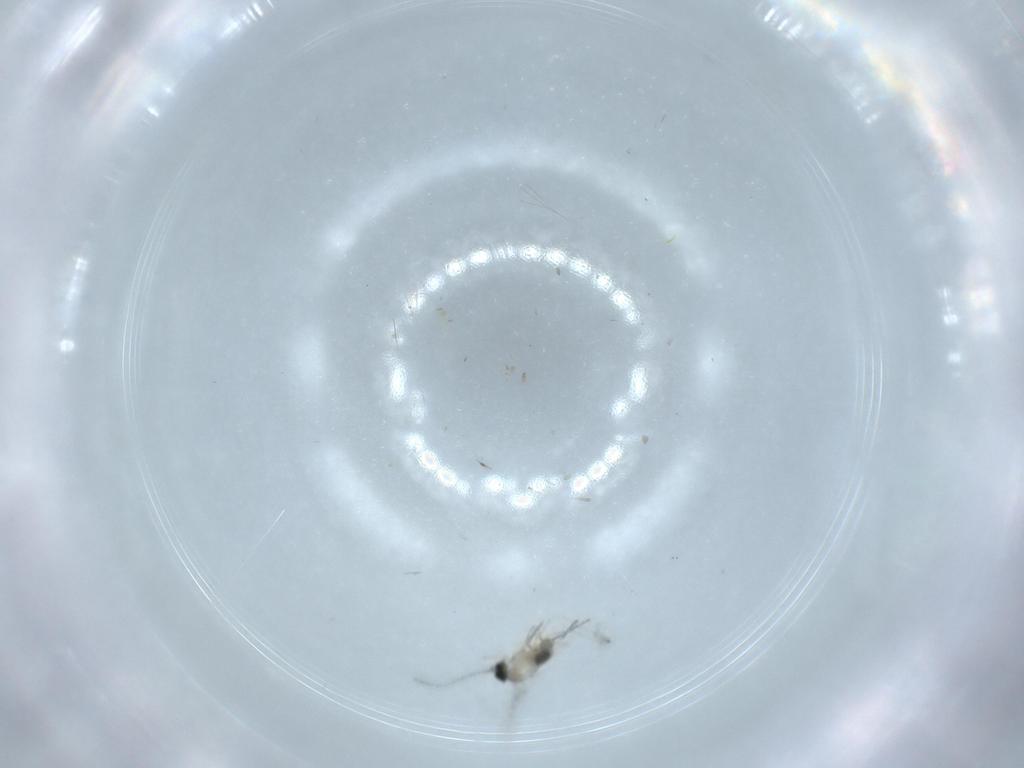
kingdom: Animalia
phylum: Arthropoda
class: Insecta
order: Diptera
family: Cecidomyiidae
